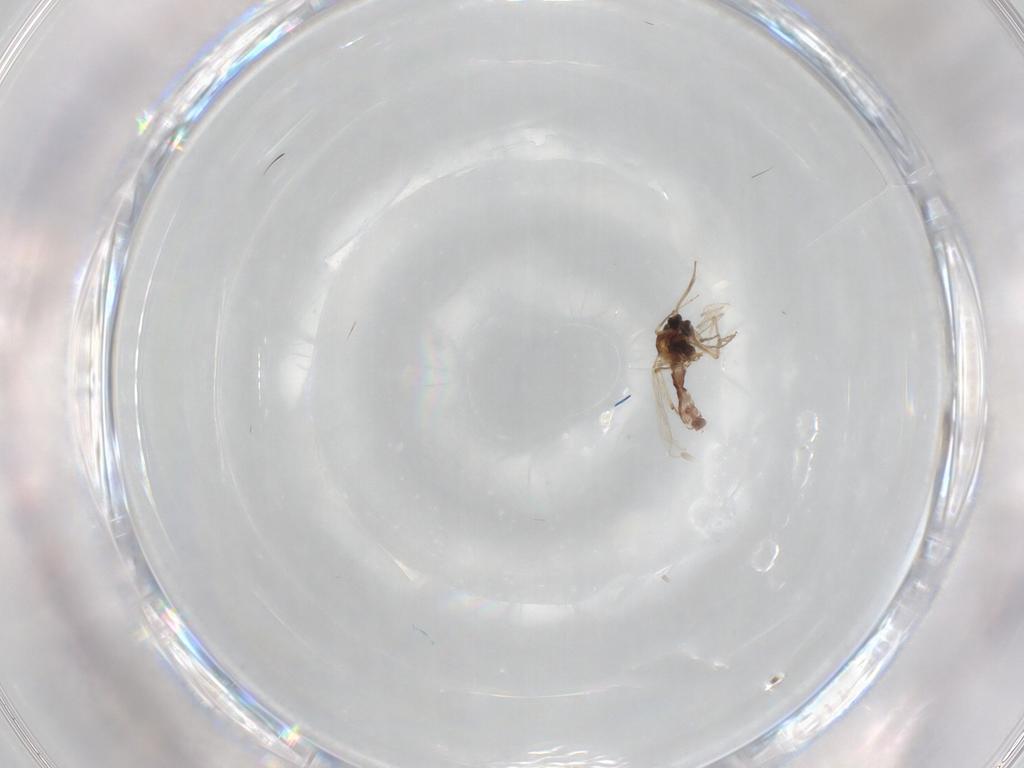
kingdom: Animalia
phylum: Arthropoda
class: Insecta
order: Diptera
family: Ceratopogonidae
